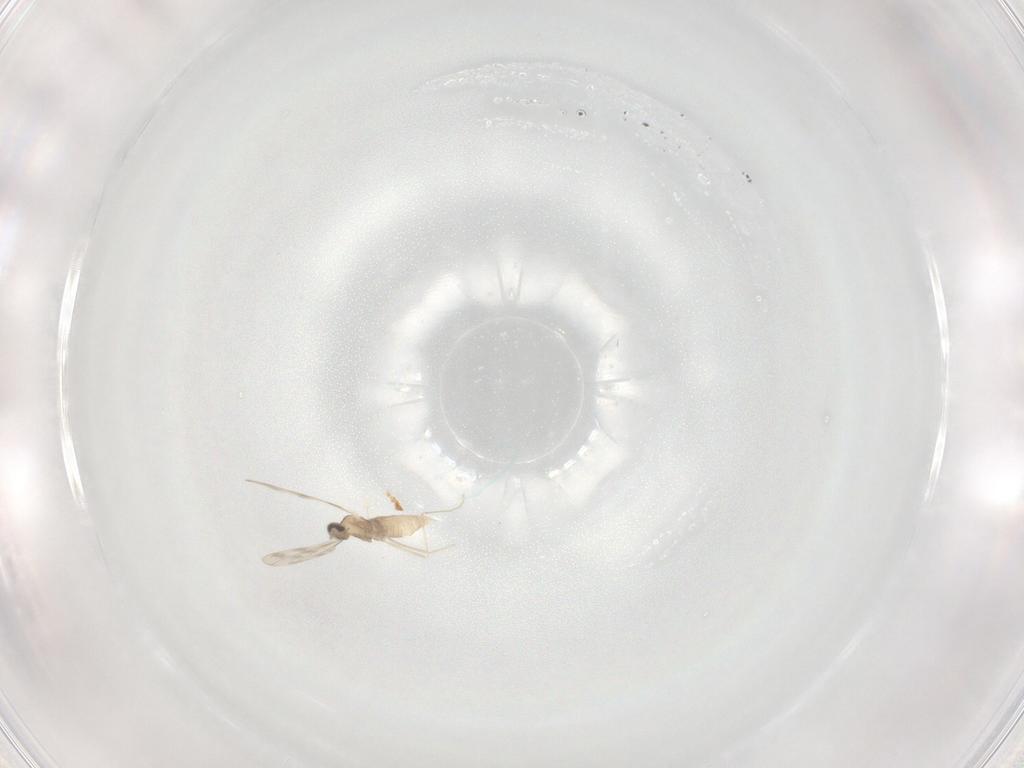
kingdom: Animalia
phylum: Arthropoda
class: Insecta
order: Diptera
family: Cecidomyiidae
